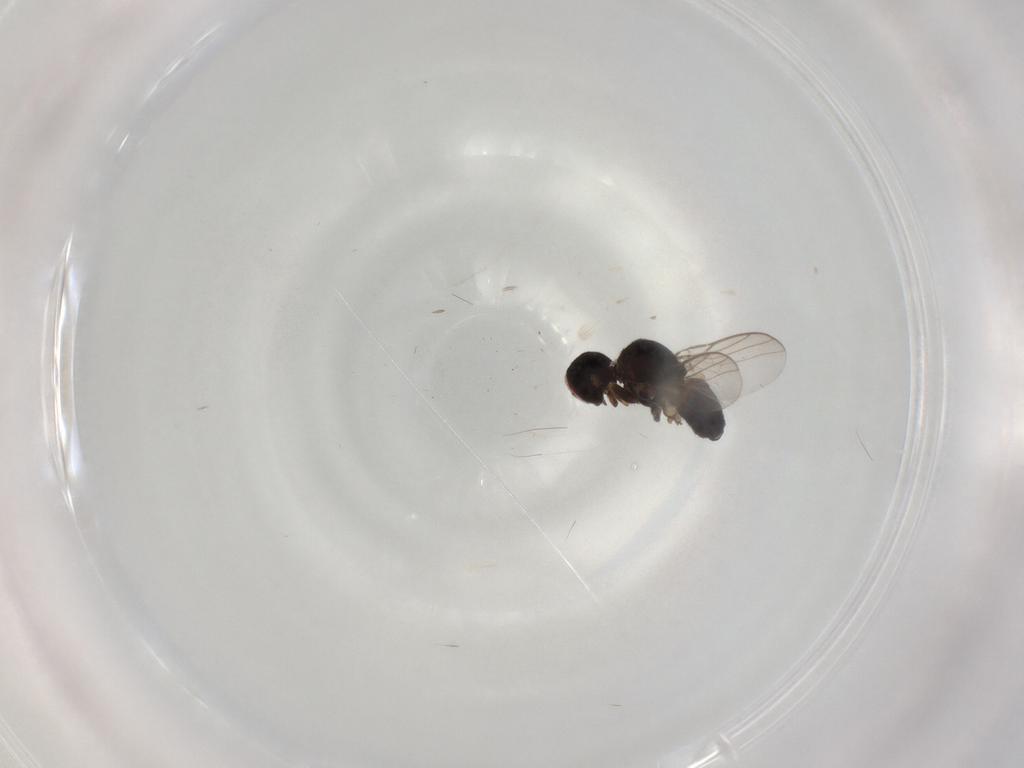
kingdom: Animalia
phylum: Arthropoda
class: Insecta
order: Diptera
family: Chloropidae
